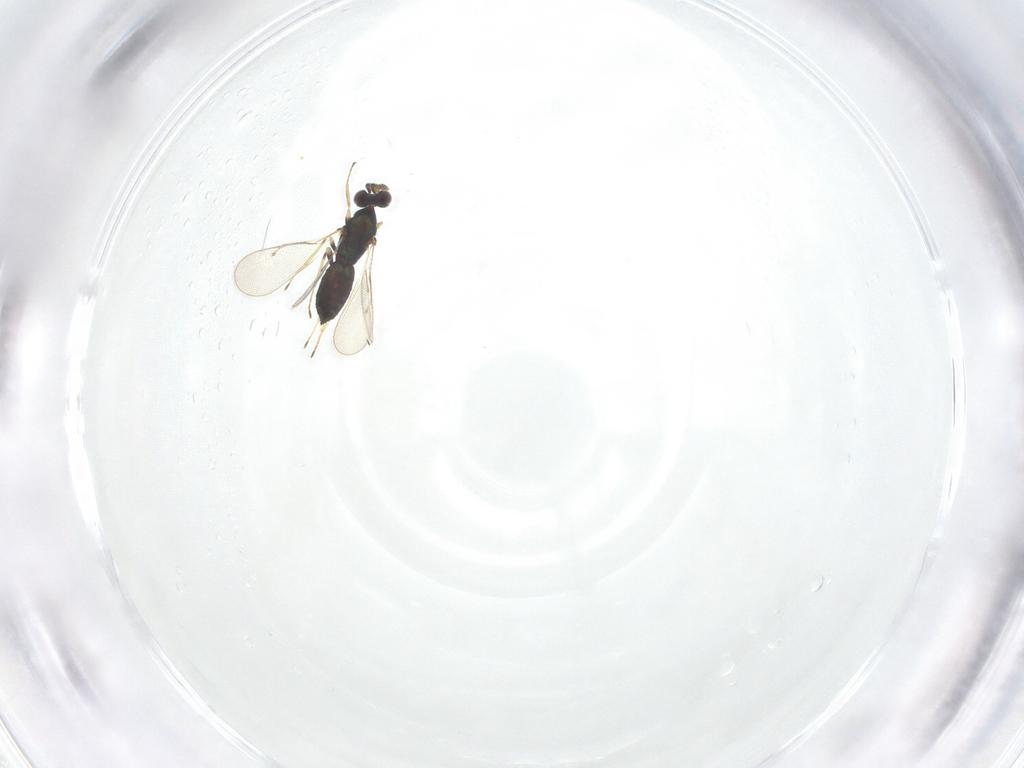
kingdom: Animalia
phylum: Arthropoda
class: Insecta
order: Hymenoptera
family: Eulophidae
